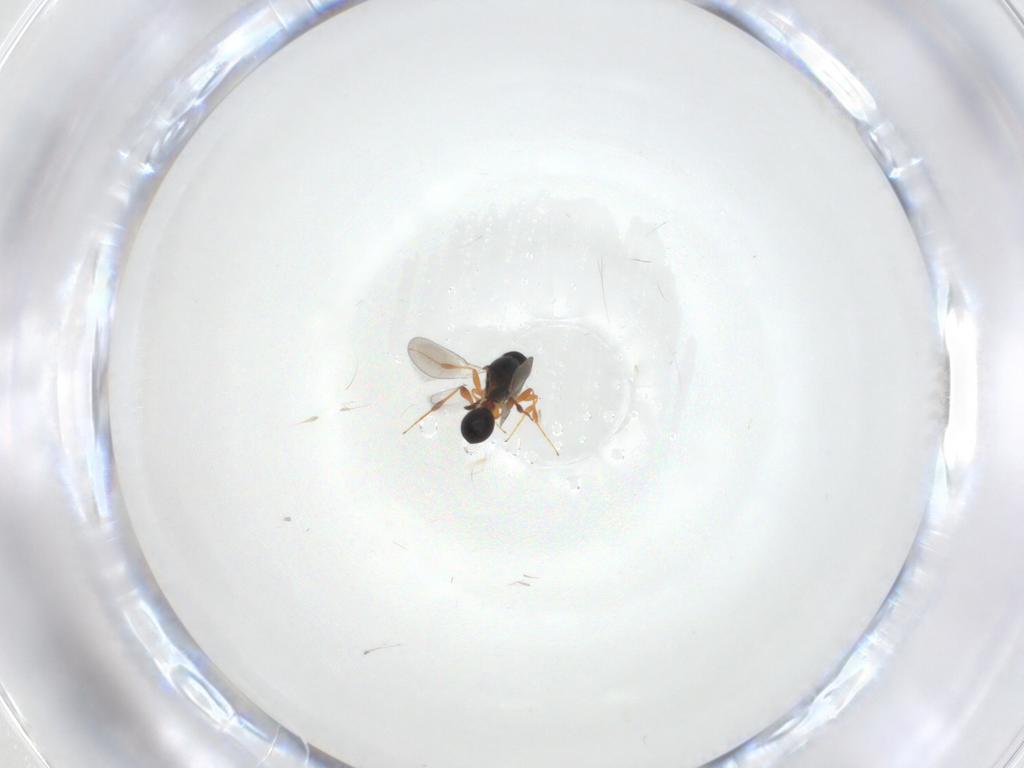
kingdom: Animalia
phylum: Arthropoda
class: Insecta
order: Hymenoptera
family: Platygastridae
